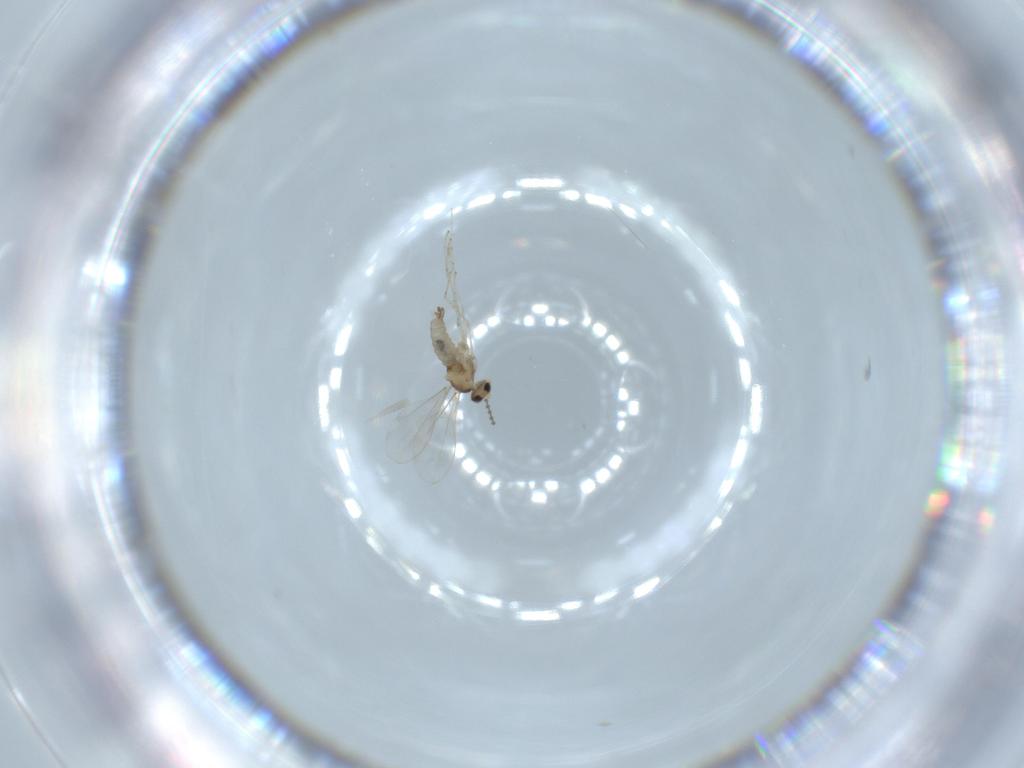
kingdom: Animalia
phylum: Arthropoda
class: Insecta
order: Diptera
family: Cecidomyiidae
